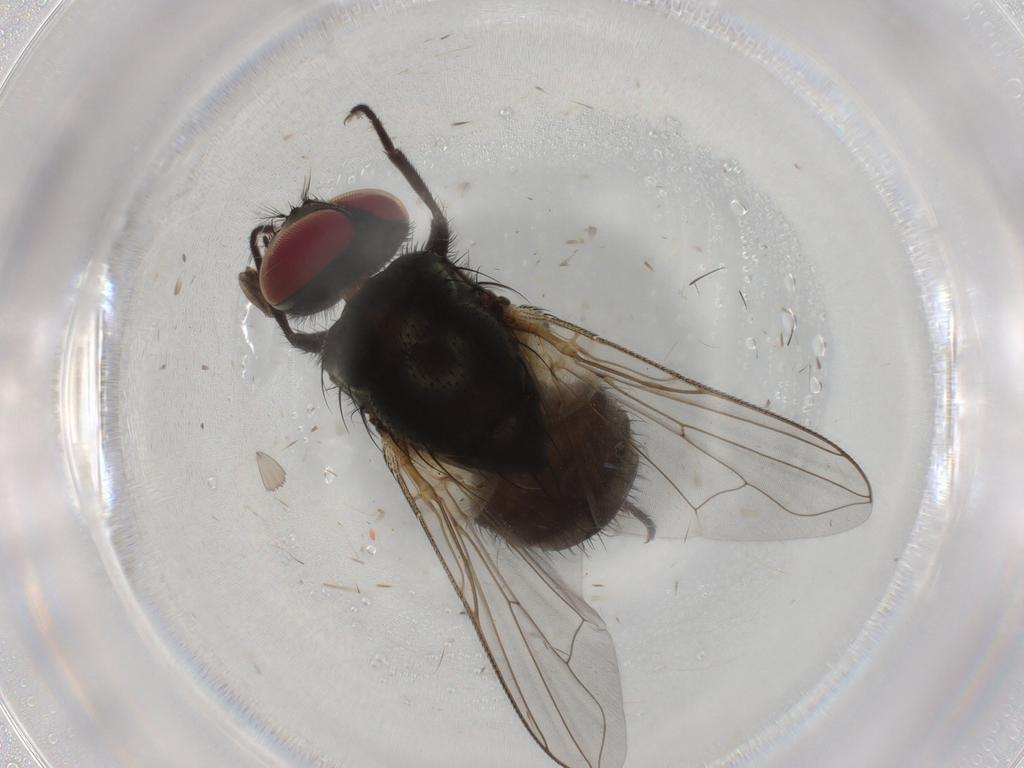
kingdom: Animalia
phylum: Arthropoda
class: Insecta
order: Diptera
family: Muscidae
